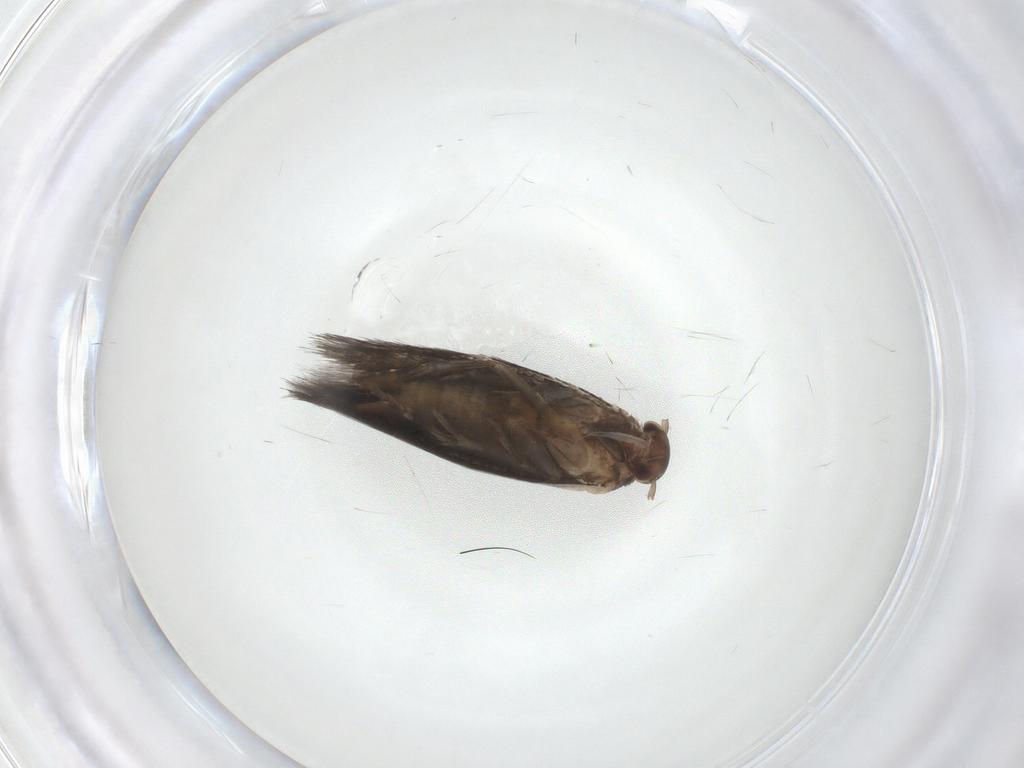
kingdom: Animalia
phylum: Arthropoda
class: Insecta
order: Lepidoptera
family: Elachistidae
